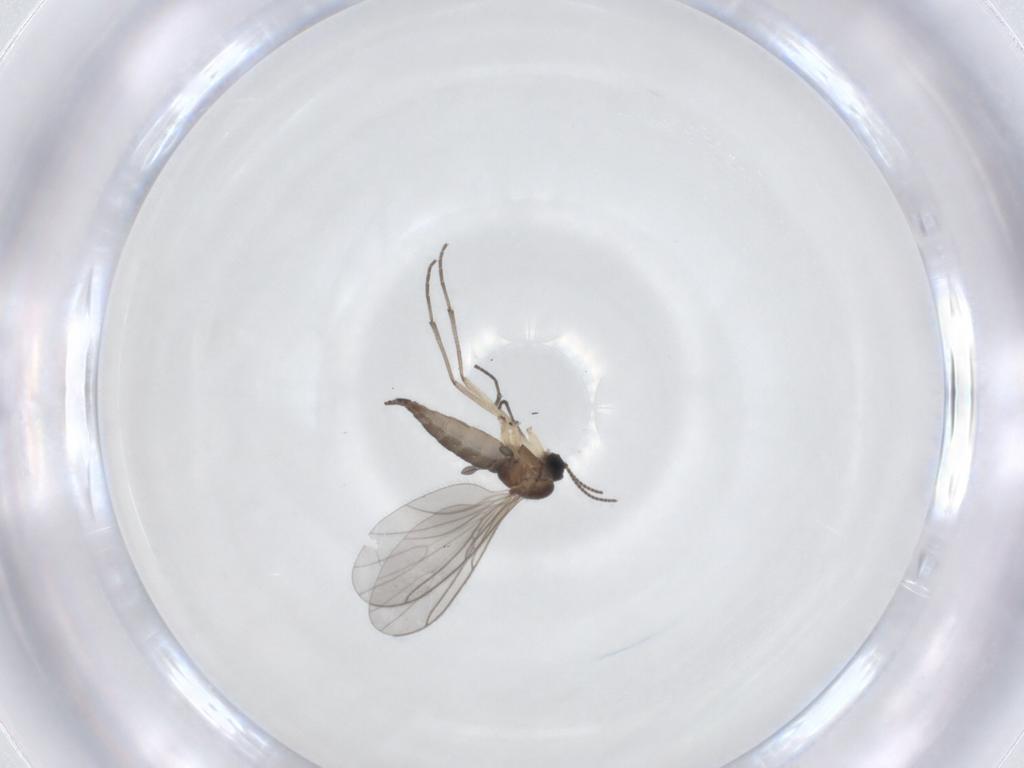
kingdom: Animalia
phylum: Arthropoda
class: Insecta
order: Diptera
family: Sciaridae
